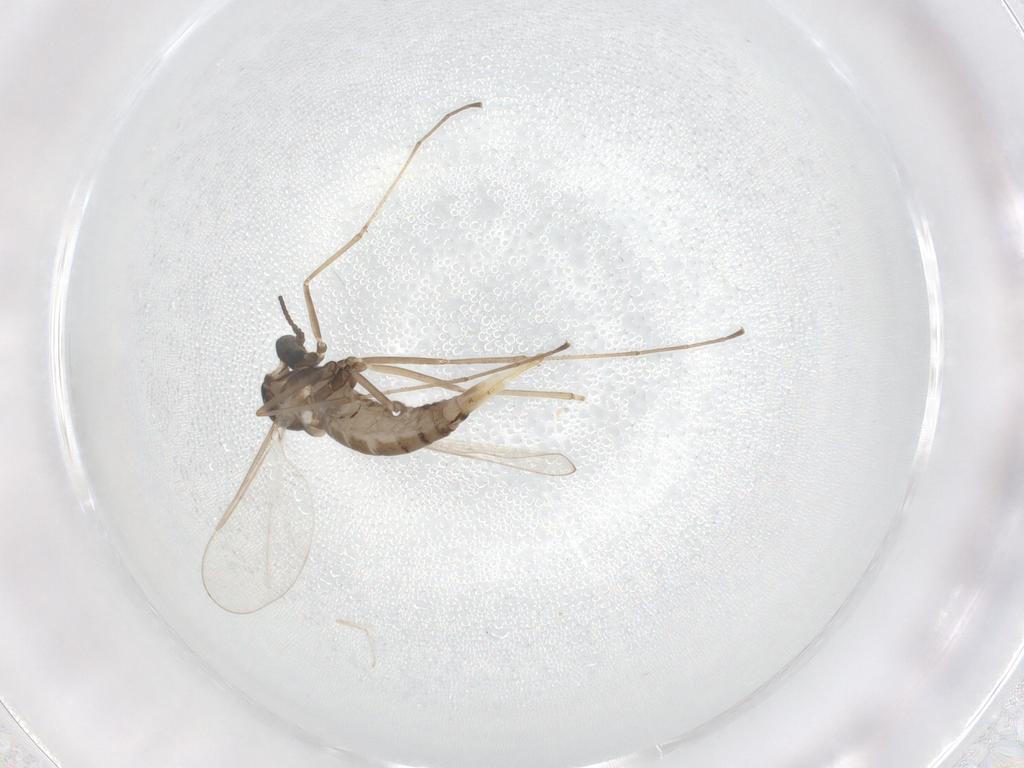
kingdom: Animalia
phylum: Arthropoda
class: Insecta
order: Diptera
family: Cecidomyiidae
